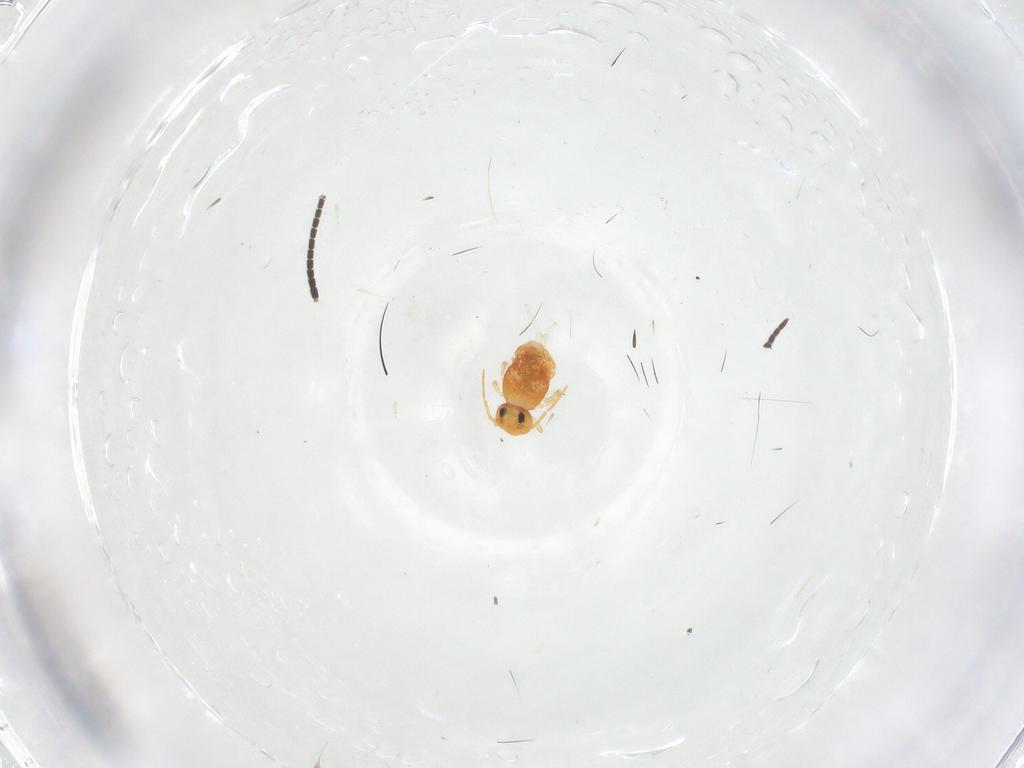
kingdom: Animalia
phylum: Arthropoda
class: Collembola
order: Symphypleona
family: Bourletiellidae
